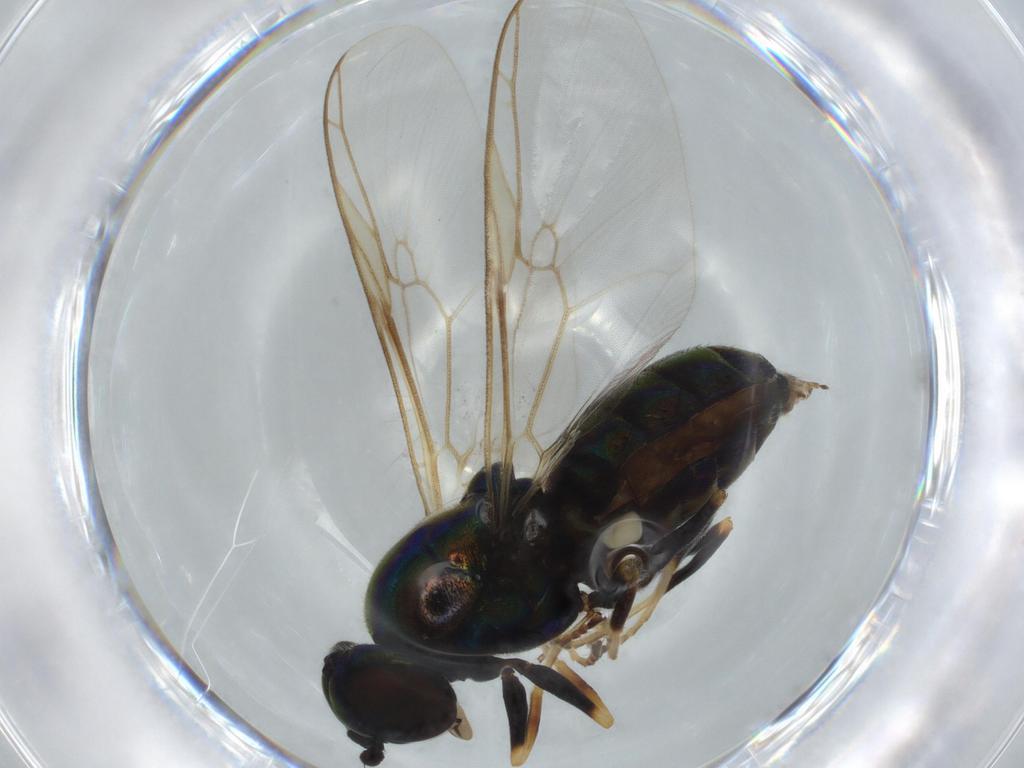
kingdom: Animalia
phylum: Arthropoda
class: Insecta
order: Diptera
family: Stratiomyidae
